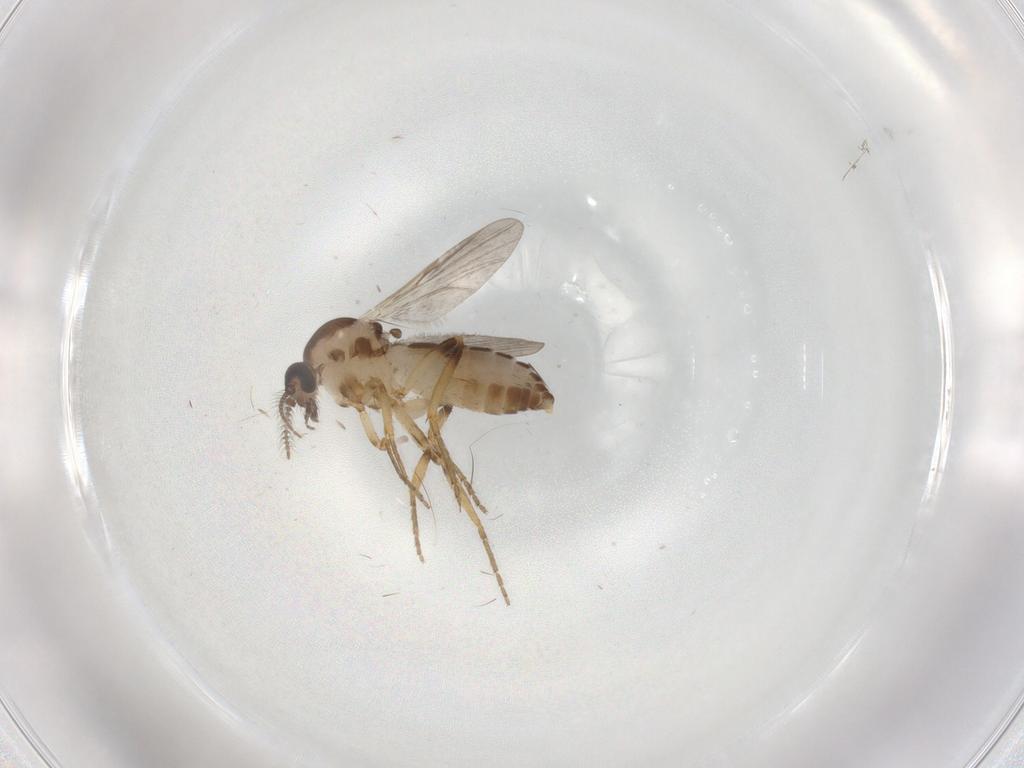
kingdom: Animalia
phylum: Arthropoda
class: Insecta
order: Diptera
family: Ceratopogonidae
